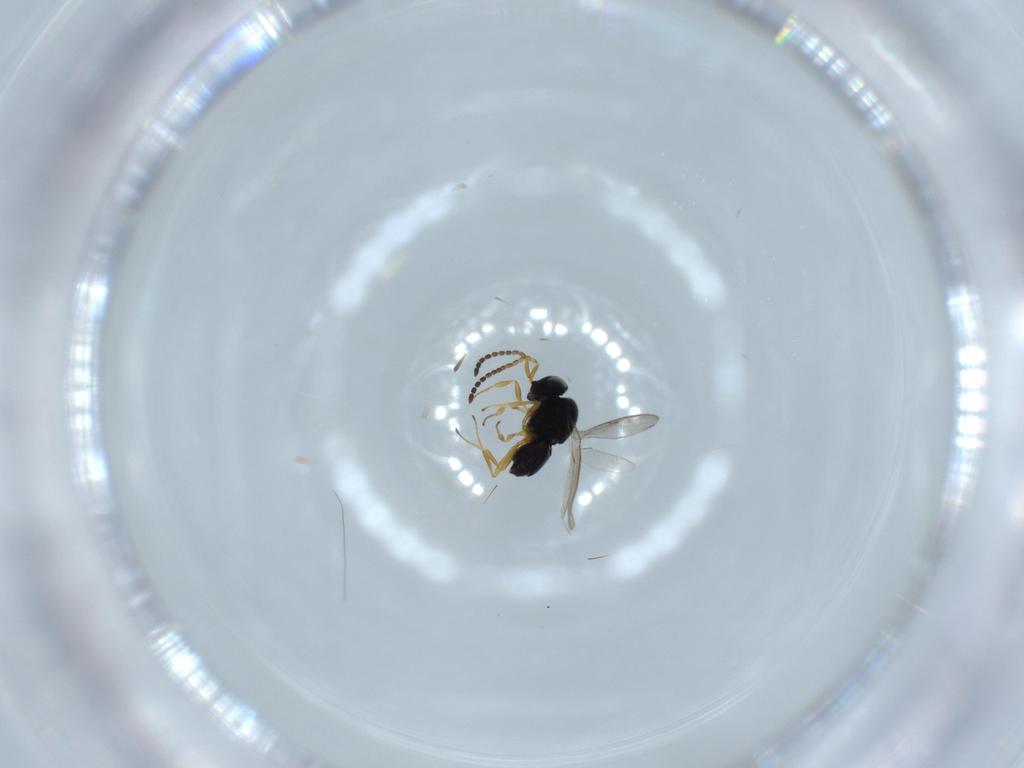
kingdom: Animalia
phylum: Arthropoda
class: Insecta
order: Hymenoptera
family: Scelionidae
